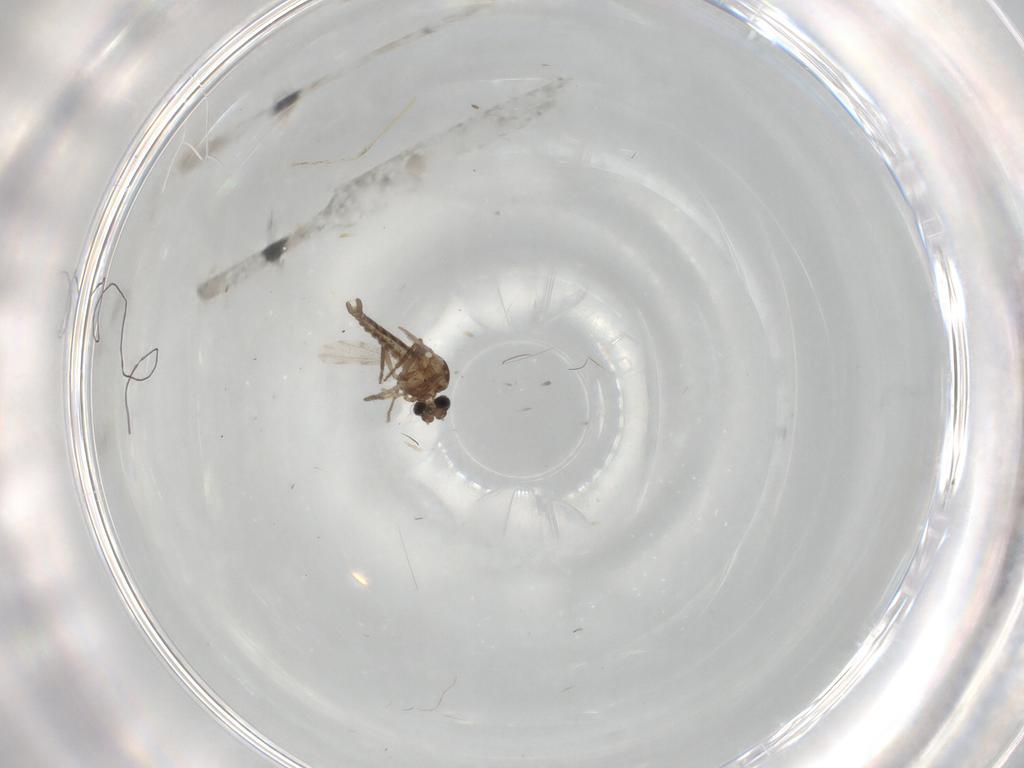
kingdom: Animalia
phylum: Arthropoda
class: Insecta
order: Diptera
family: Ceratopogonidae
